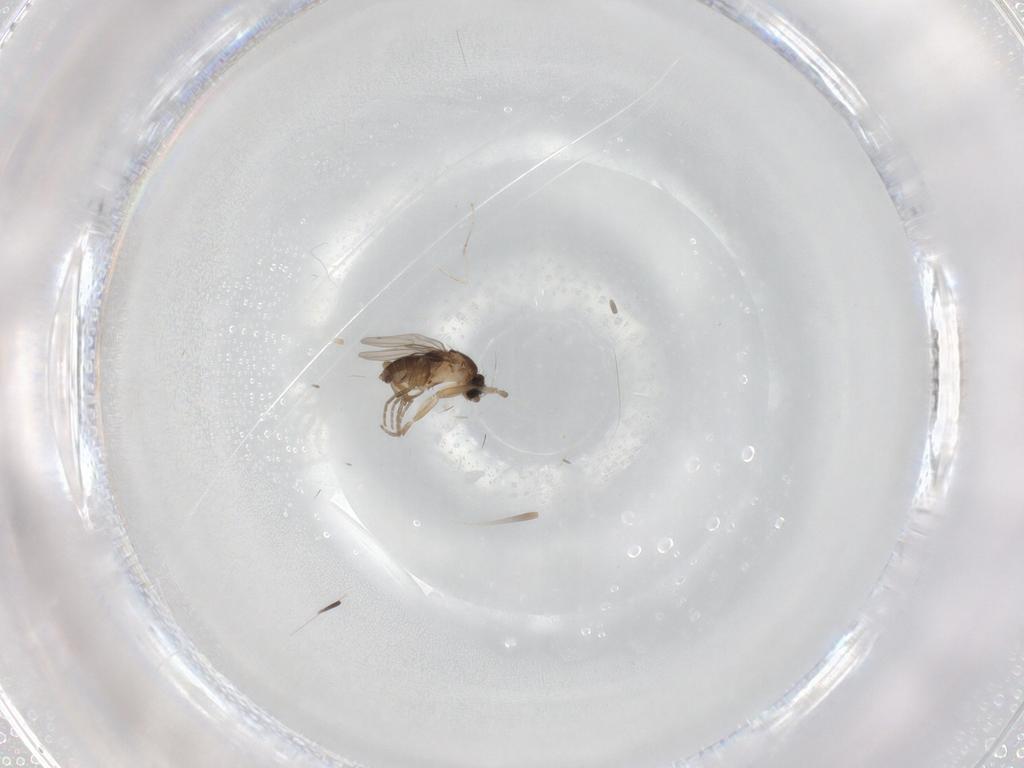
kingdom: Animalia
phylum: Arthropoda
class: Insecta
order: Diptera
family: Phoridae
